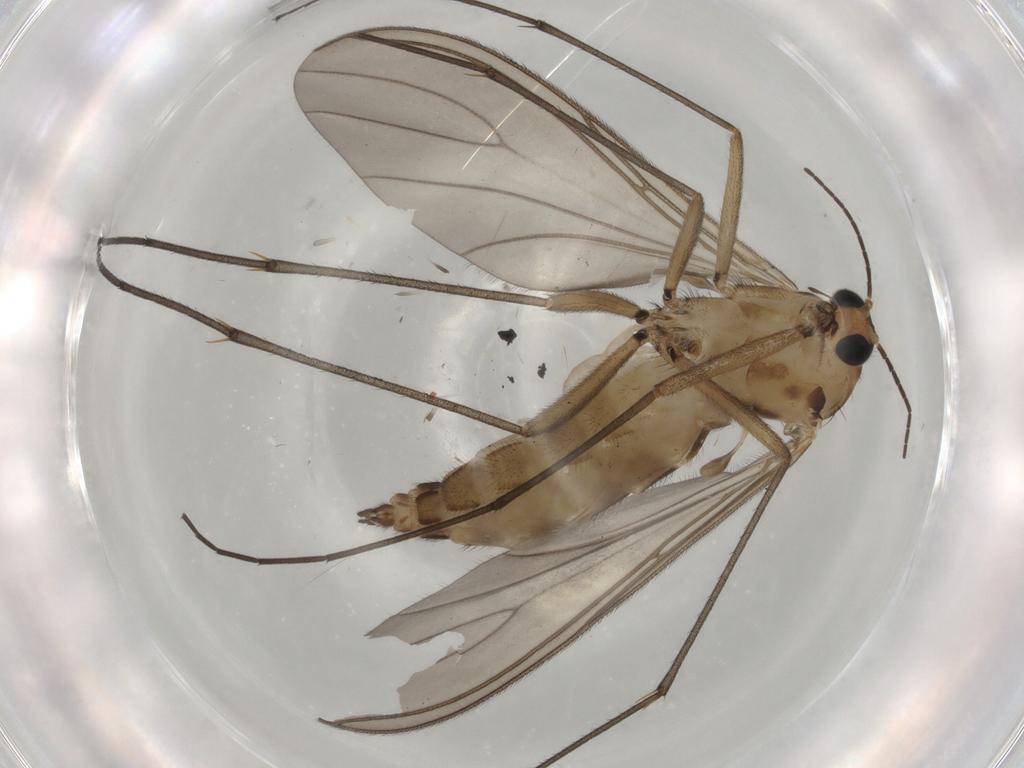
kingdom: Animalia
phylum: Arthropoda
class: Insecta
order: Diptera
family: Sciaridae
